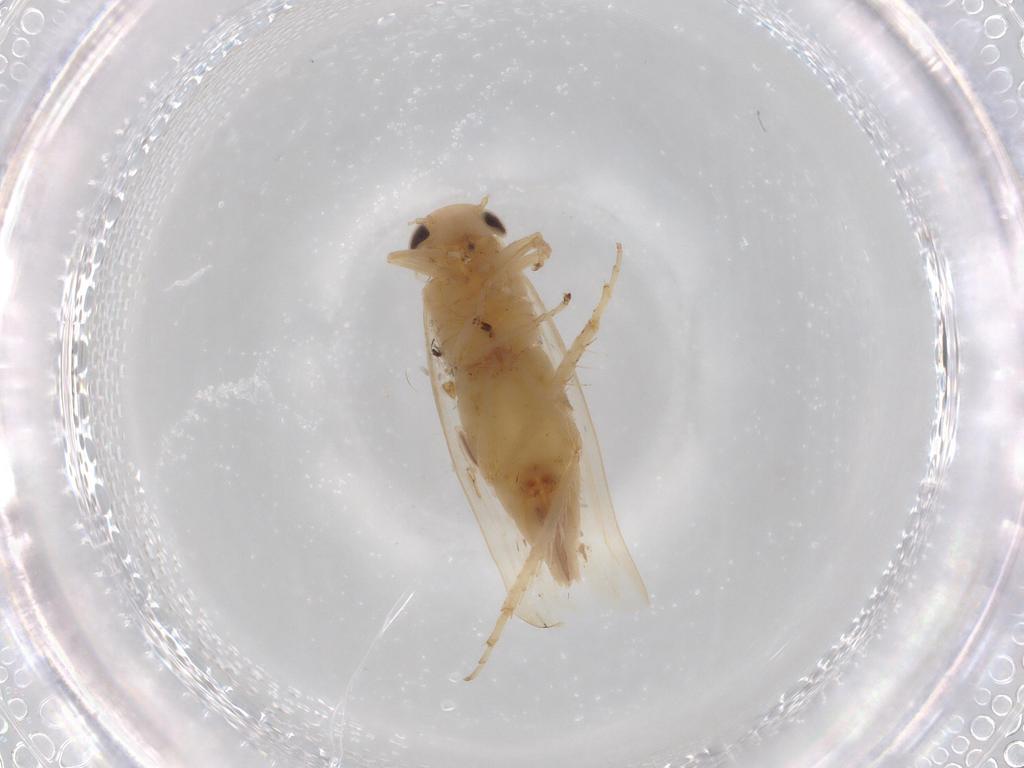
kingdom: Animalia
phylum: Arthropoda
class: Insecta
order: Hemiptera
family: Cicadellidae
